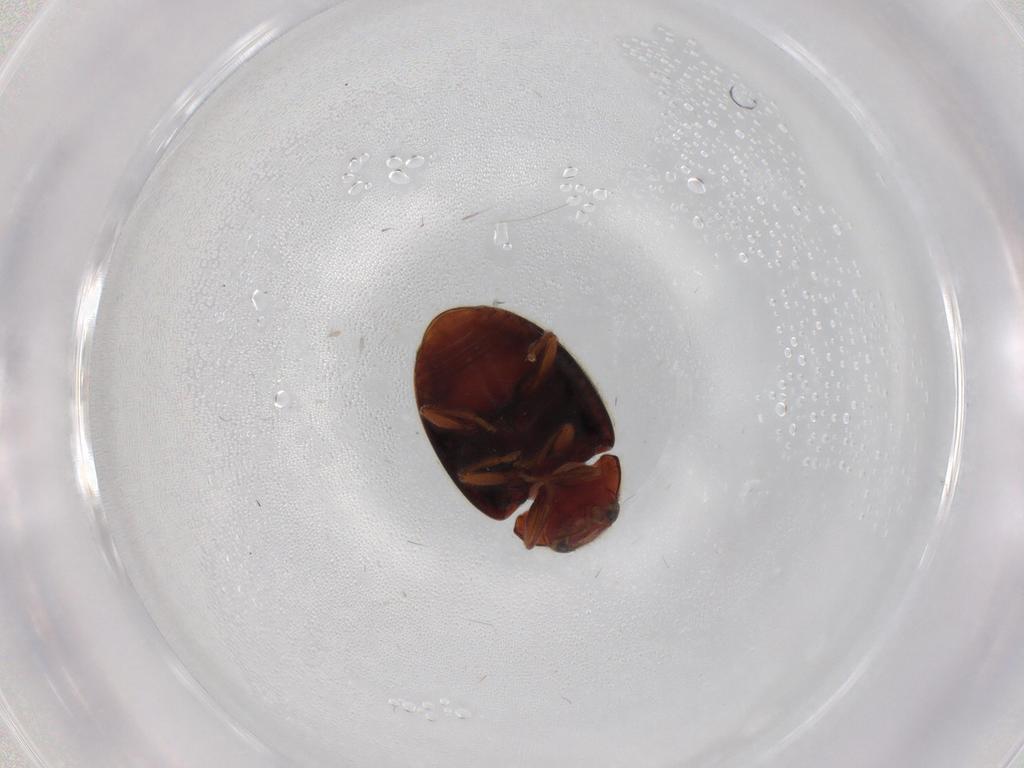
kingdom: Animalia
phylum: Arthropoda
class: Insecta
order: Coleoptera
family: Coccinellidae
